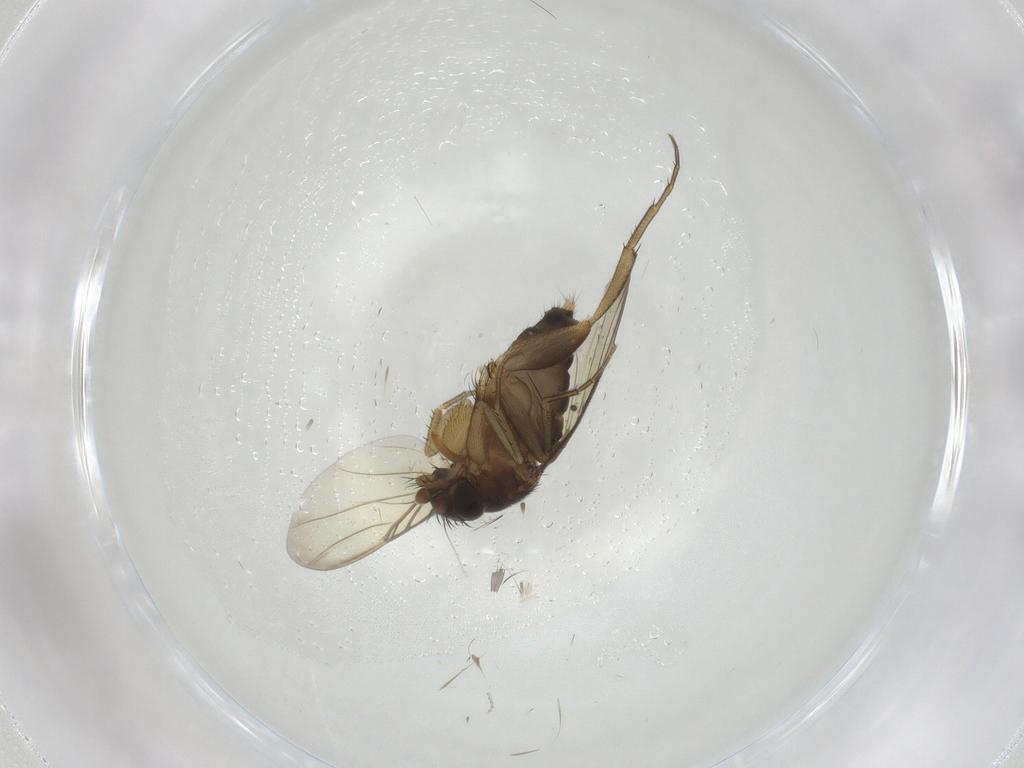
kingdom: Animalia
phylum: Arthropoda
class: Insecta
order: Diptera
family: Phoridae
